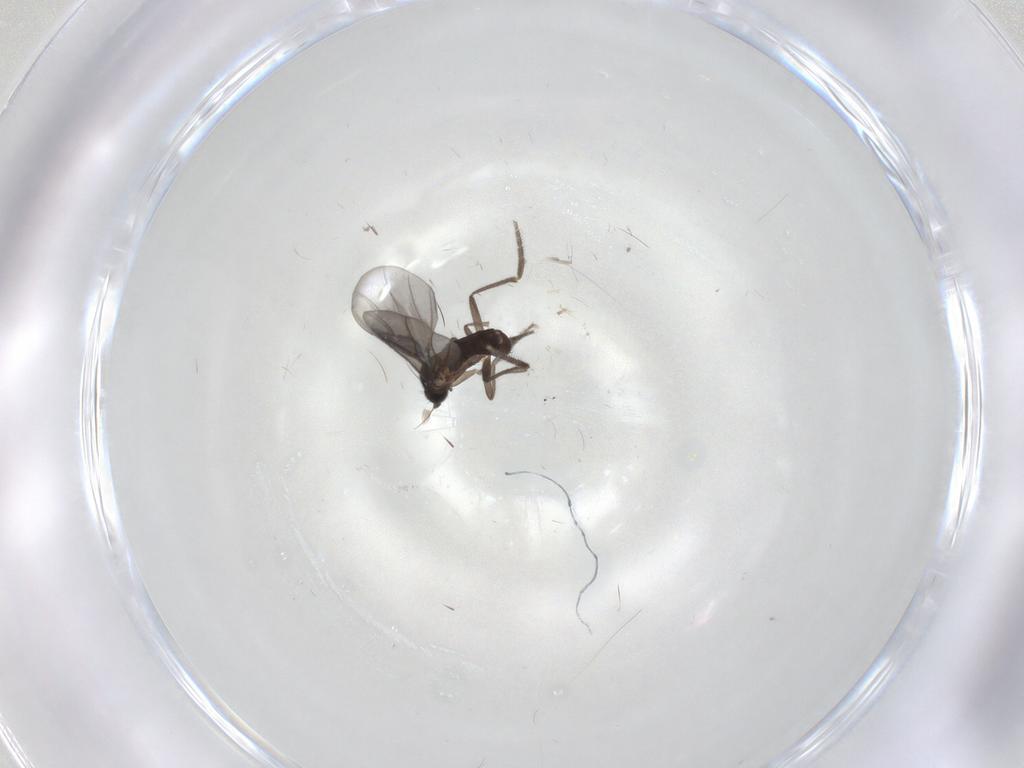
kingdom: Animalia
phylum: Arthropoda
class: Insecta
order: Diptera
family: Phoridae
